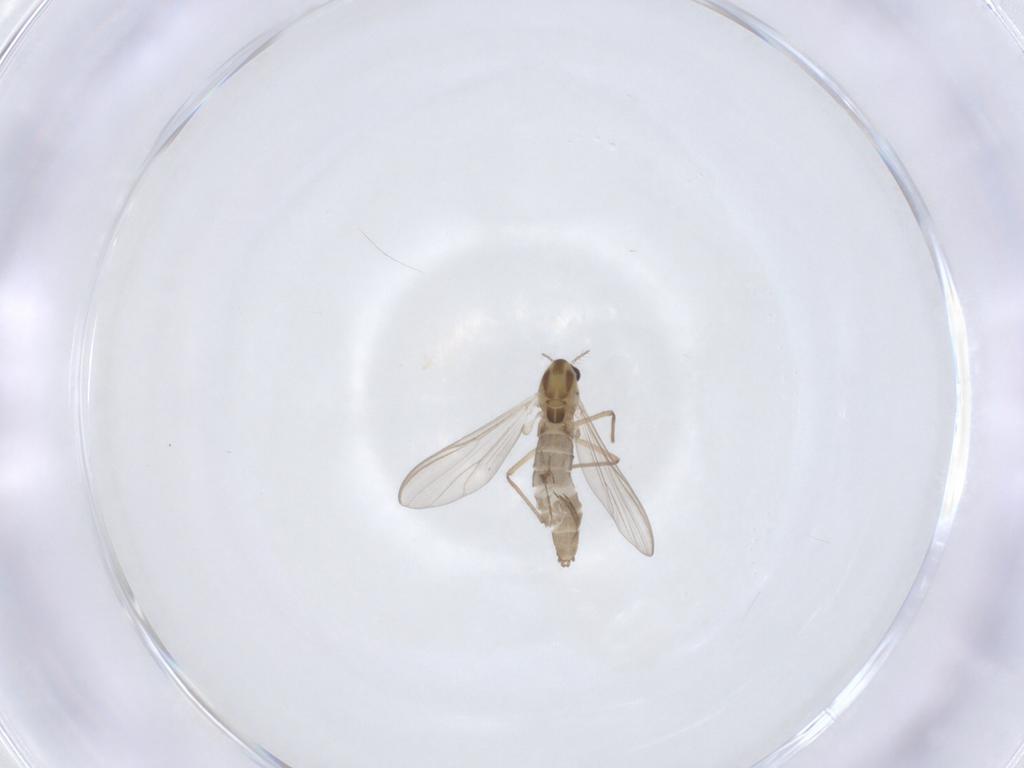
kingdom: Animalia
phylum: Arthropoda
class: Insecta
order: Diptera
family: Chironomidae
